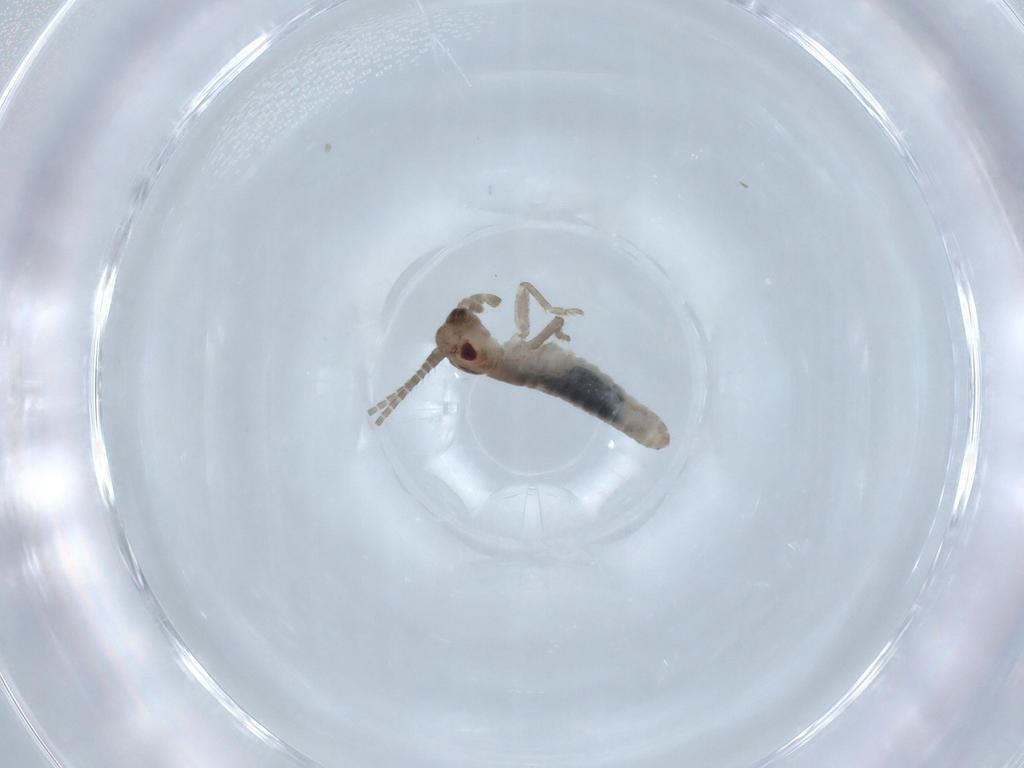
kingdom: Animalia
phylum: Arthropoda
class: Insecta
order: Orthoptera
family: Mogoplistidae
